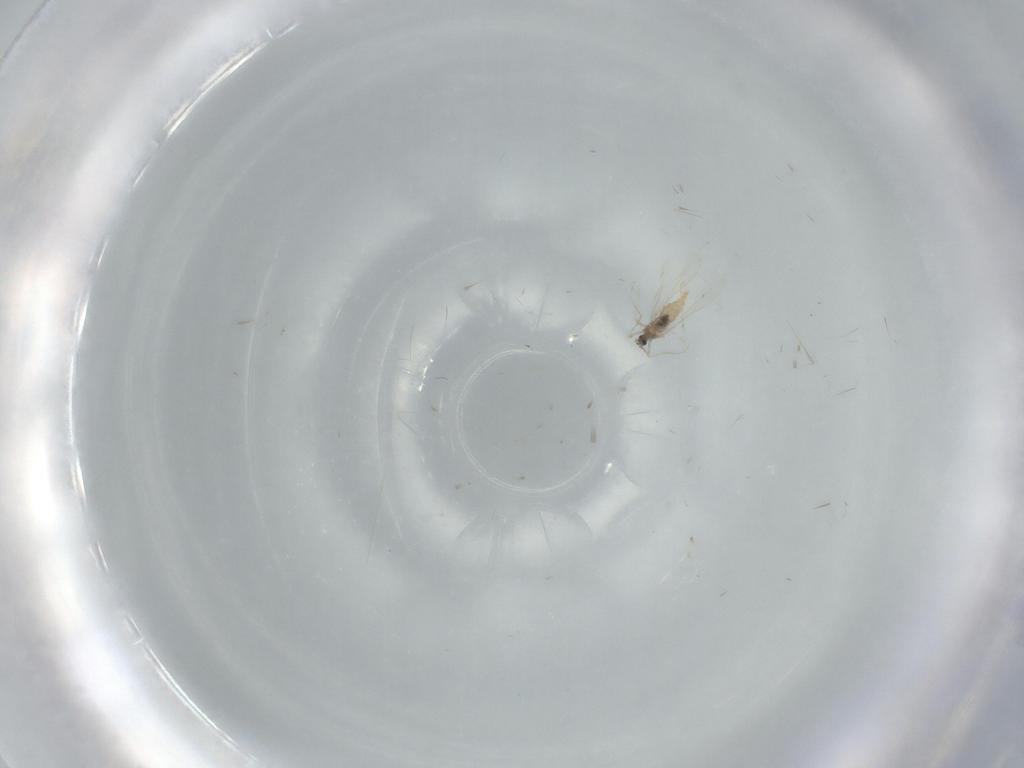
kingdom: Animalia
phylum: Arthropoda
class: Insecta
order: Diptera
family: Cecidomyiidae
